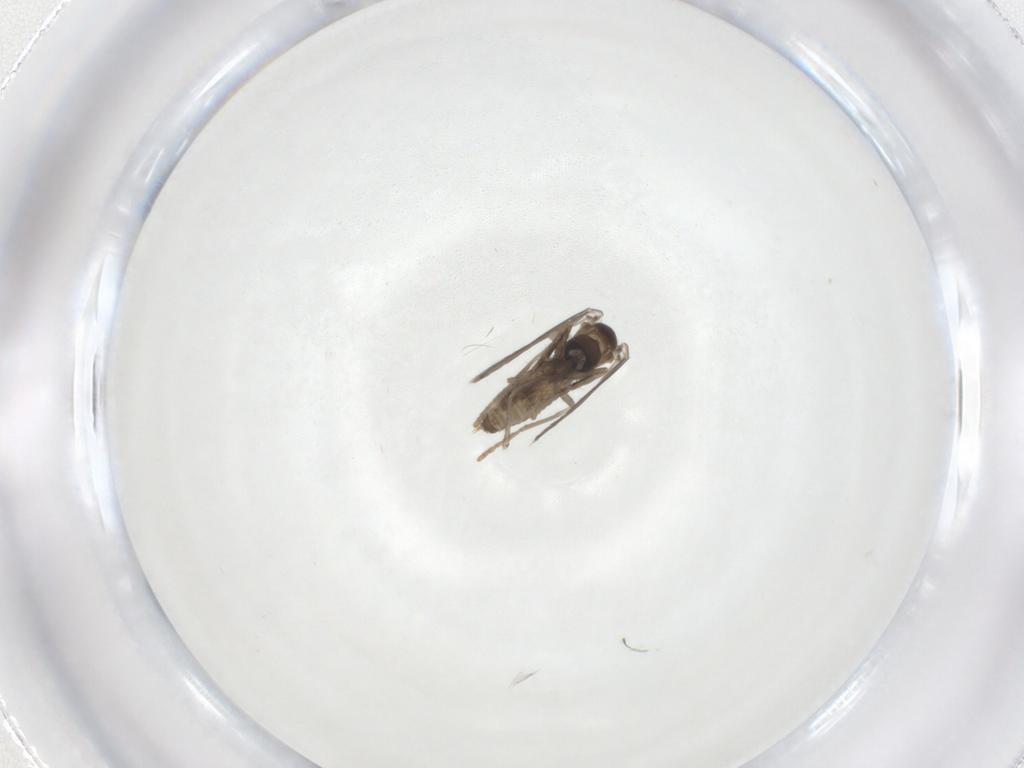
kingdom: Animalia
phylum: Arthropoda
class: Insecta
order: Diptera
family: Psychodidae
